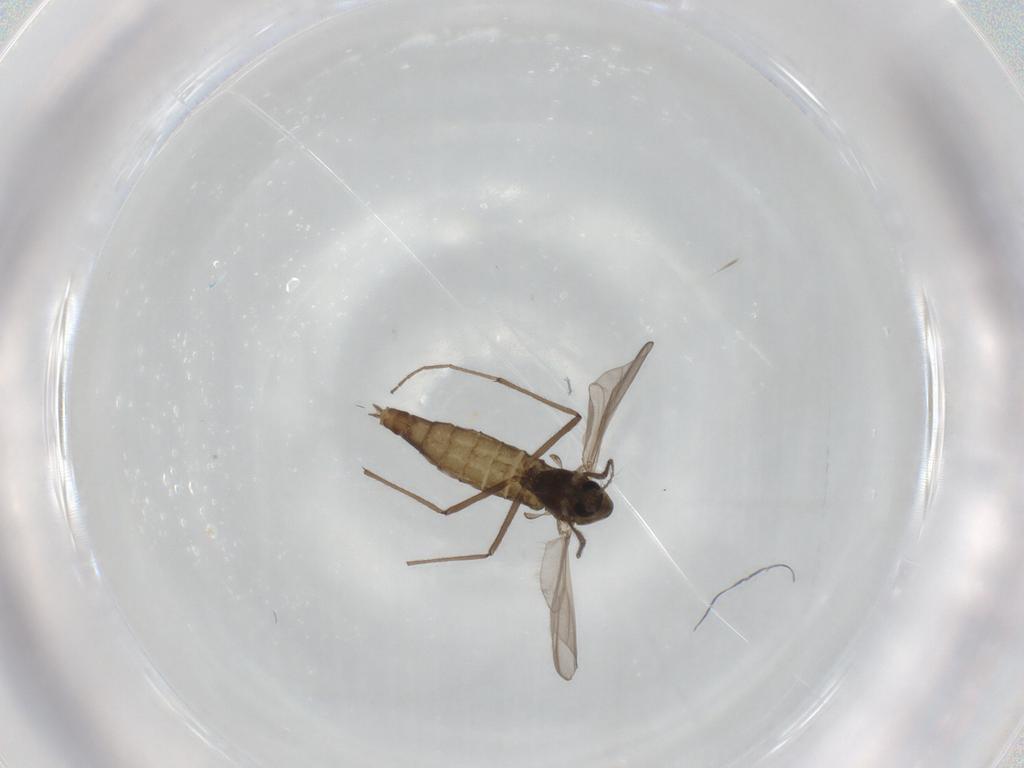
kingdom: Animalia
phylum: Arthropoda
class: Insecta
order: Diptera
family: Chironomidae
